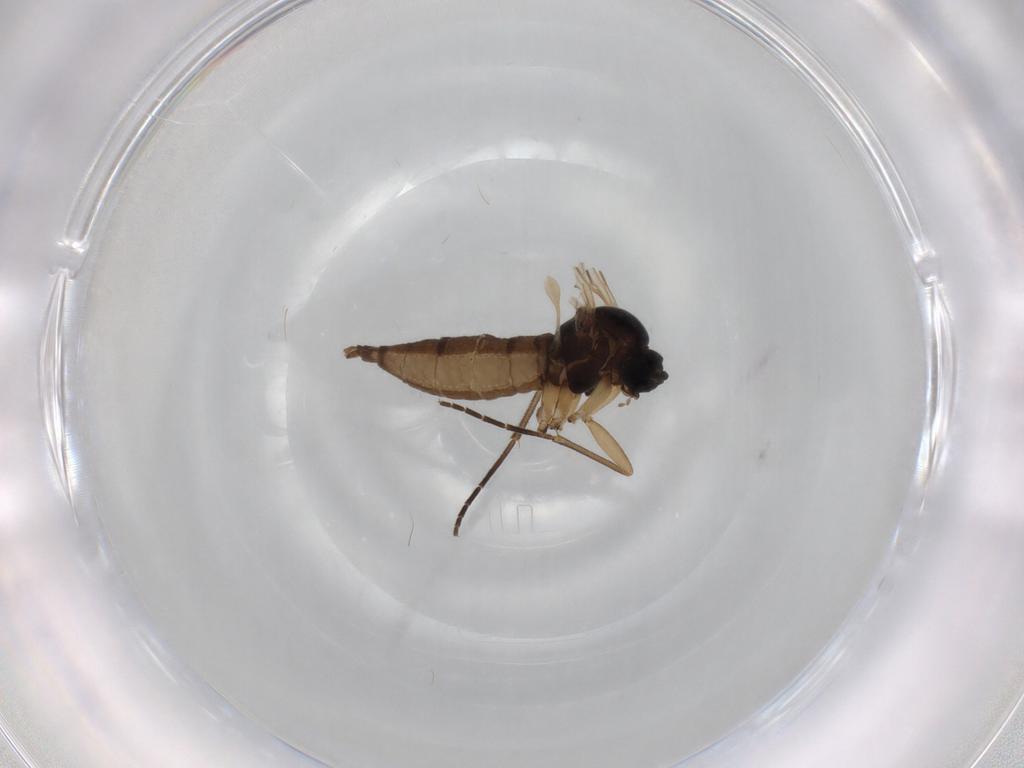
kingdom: Animalia
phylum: Arthropoda
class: Insecta
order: Diptera
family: Sciaridae
